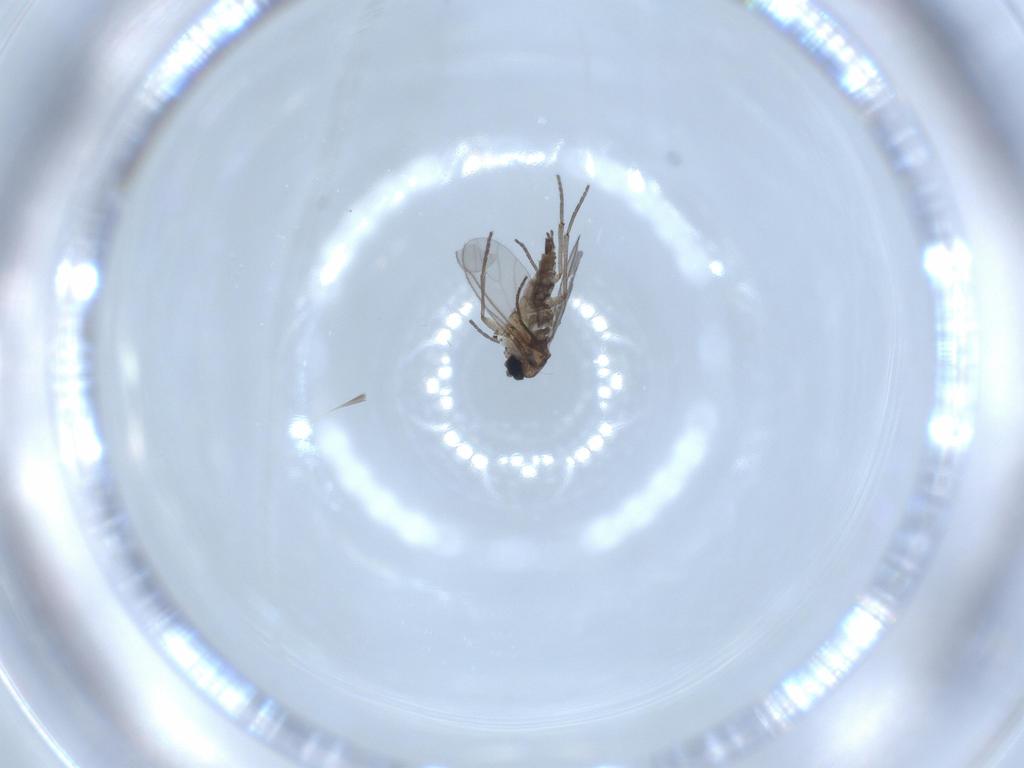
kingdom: Animalia
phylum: Arthropoda
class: Insecta
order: Diptera
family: Sciaridae
